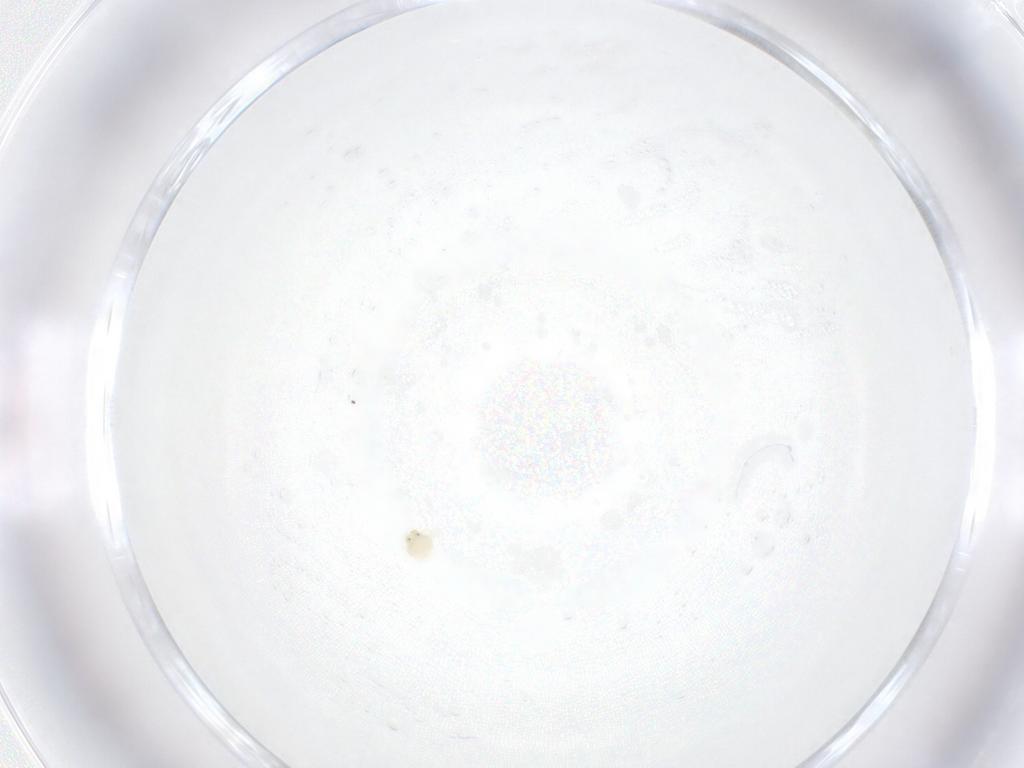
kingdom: Animalia
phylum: Arthropoda
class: Arachnida
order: Trombidiformes
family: Arrenuridae
